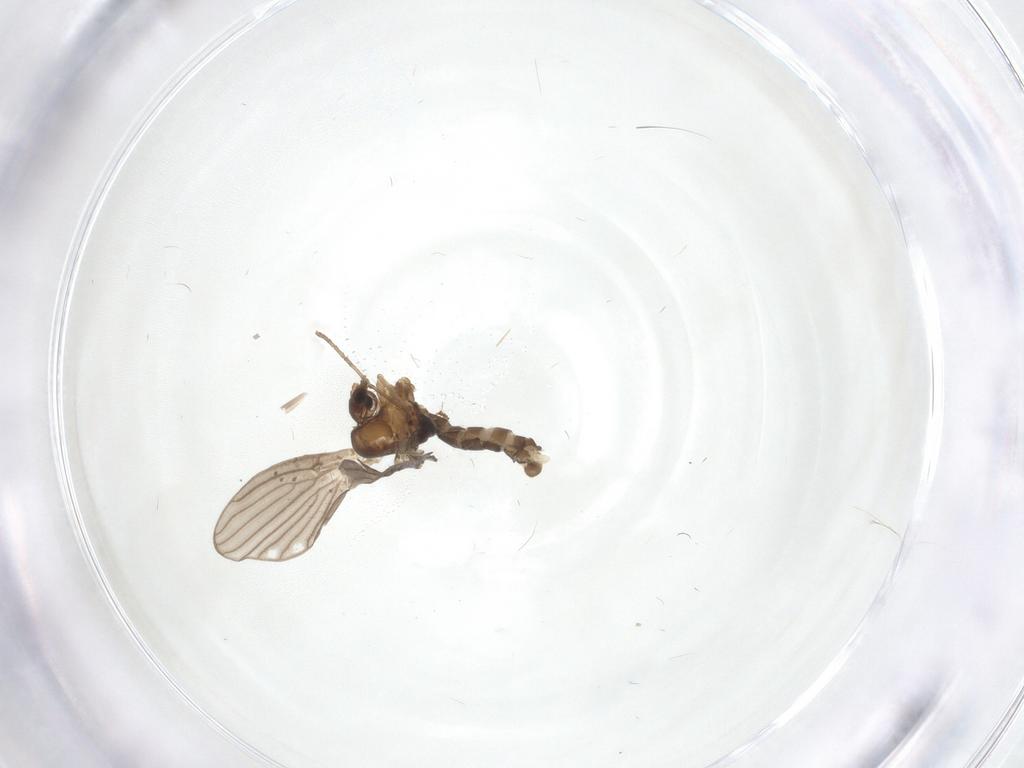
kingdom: Animalia
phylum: Arthropoda
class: Insecta
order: Diptera
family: Psychodidae
